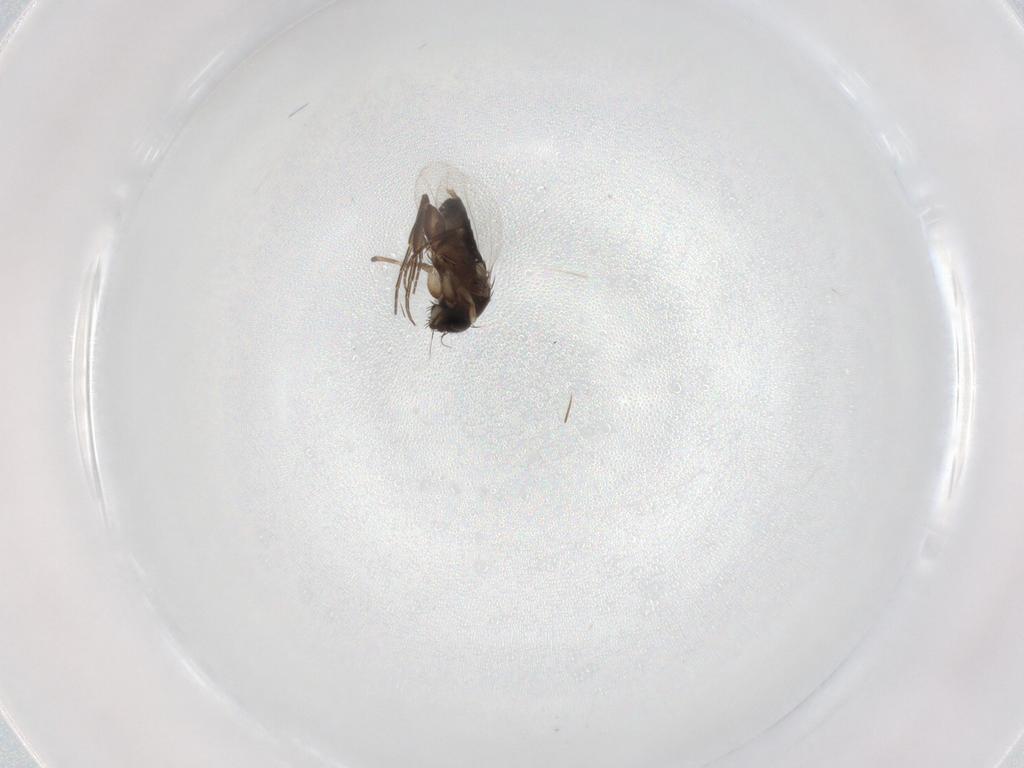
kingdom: Animalia
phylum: Arthropoda
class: Insecta
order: Diptera
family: Phoridae
